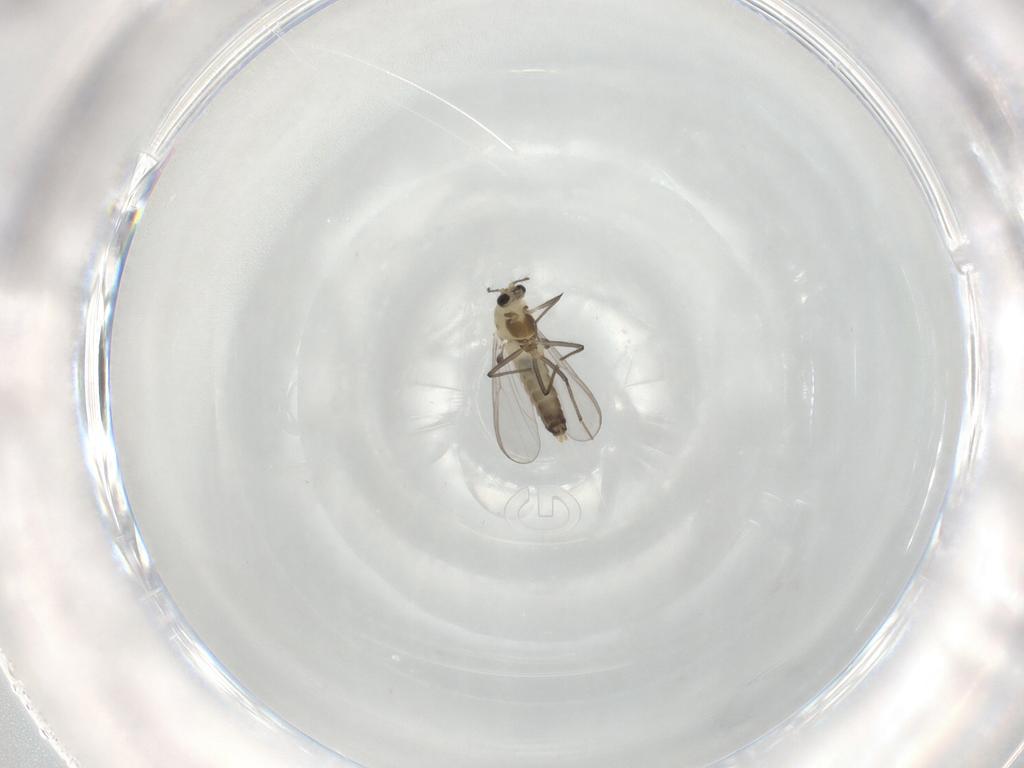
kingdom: Animalia
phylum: Arthropoda
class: Insecta
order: Diptera
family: Chironomidae
